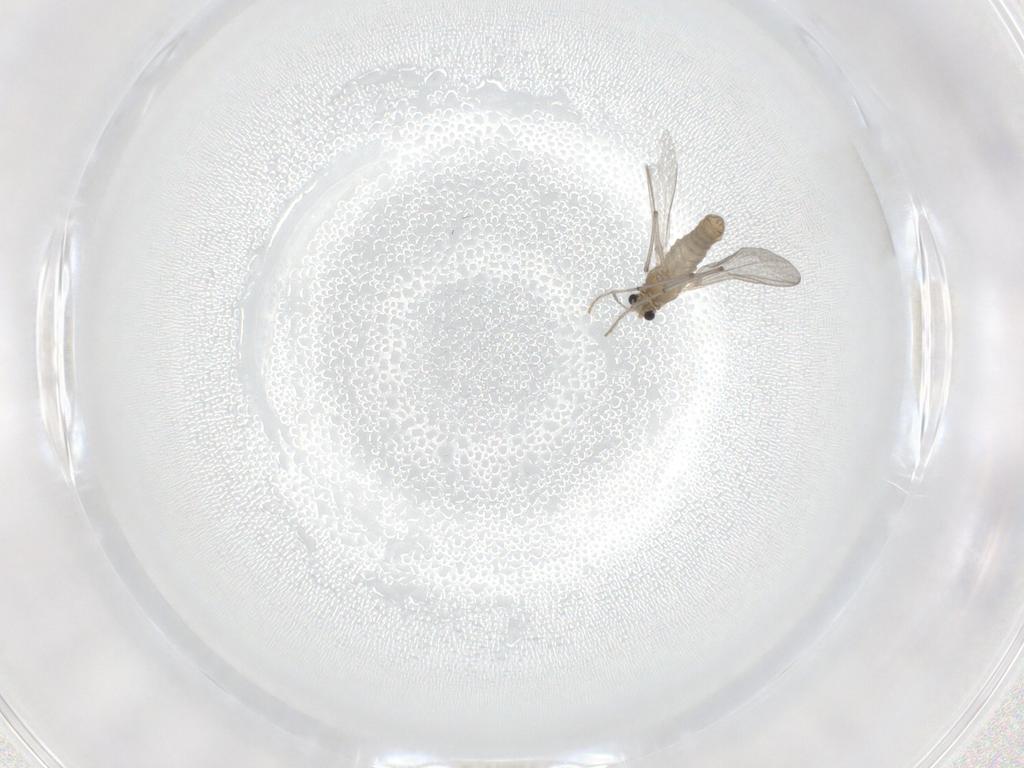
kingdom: Animalia
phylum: Arthropoda
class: Insecta
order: Diptera
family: Chironomidae
